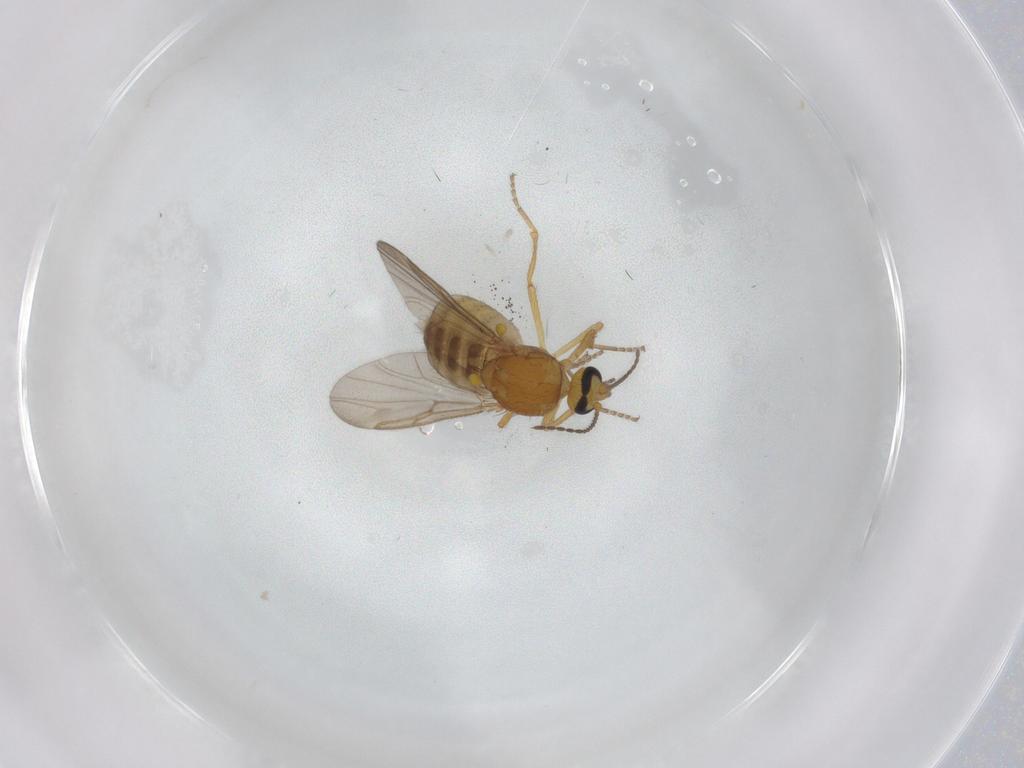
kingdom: Animalia
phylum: Arthropoda
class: Insecta
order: Diptera
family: Ceratopogonidae
